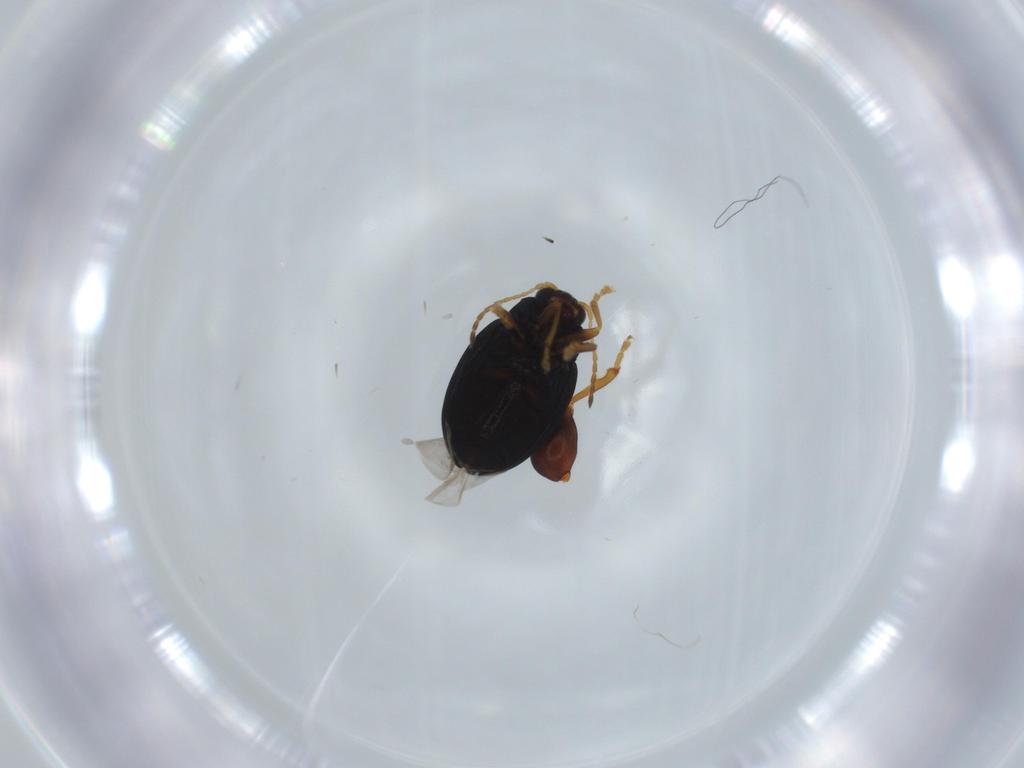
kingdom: Animalia
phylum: Arthropoda
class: Insecta
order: Coleoptera
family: Chrysomelidae
